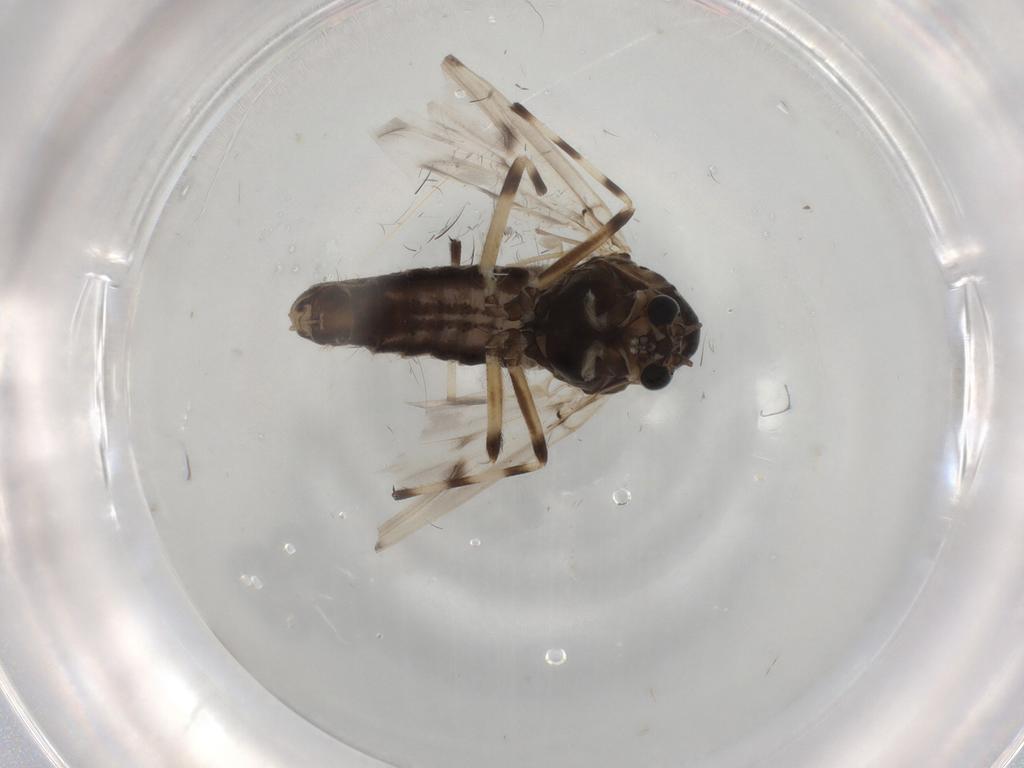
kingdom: Animalia
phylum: Arthropoda
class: Insecta
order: Diptera
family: Chironomidae
